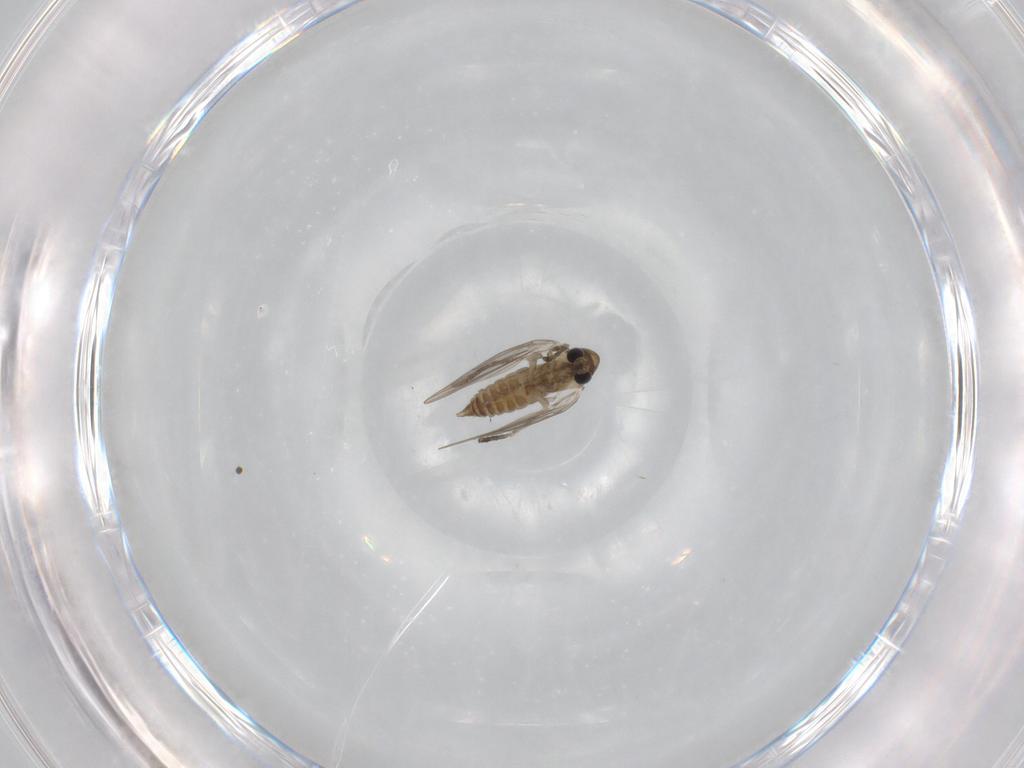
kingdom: Animalia
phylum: Arthropoda
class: Insecta
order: Diptera
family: Psychodidae
